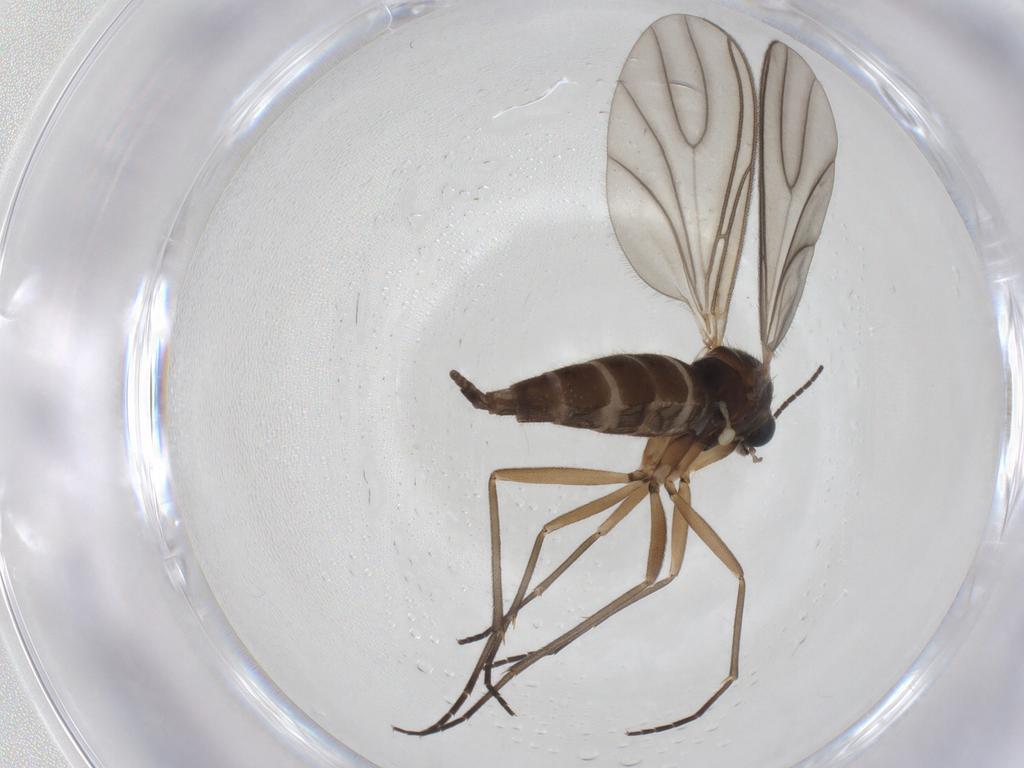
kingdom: Animalia
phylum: Arthropoda
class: Insecta
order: Diptera
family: Sciaridae
